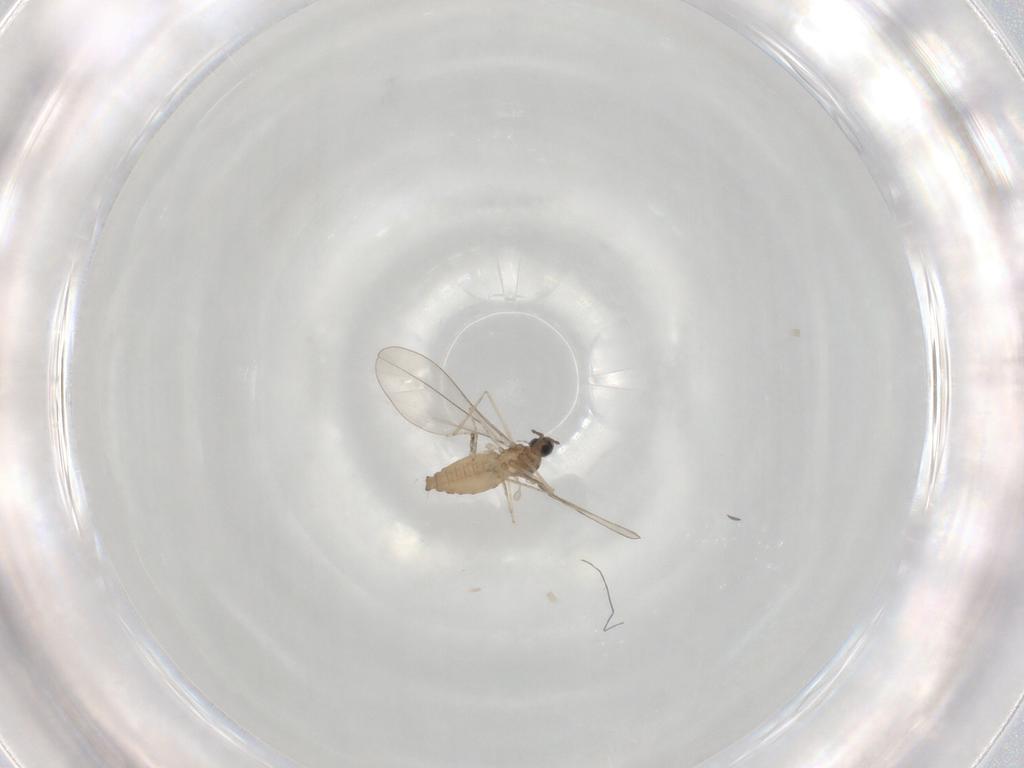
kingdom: Animalia
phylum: Arthropoda
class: Insecta
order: Diptera
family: Cecidomyiidae
